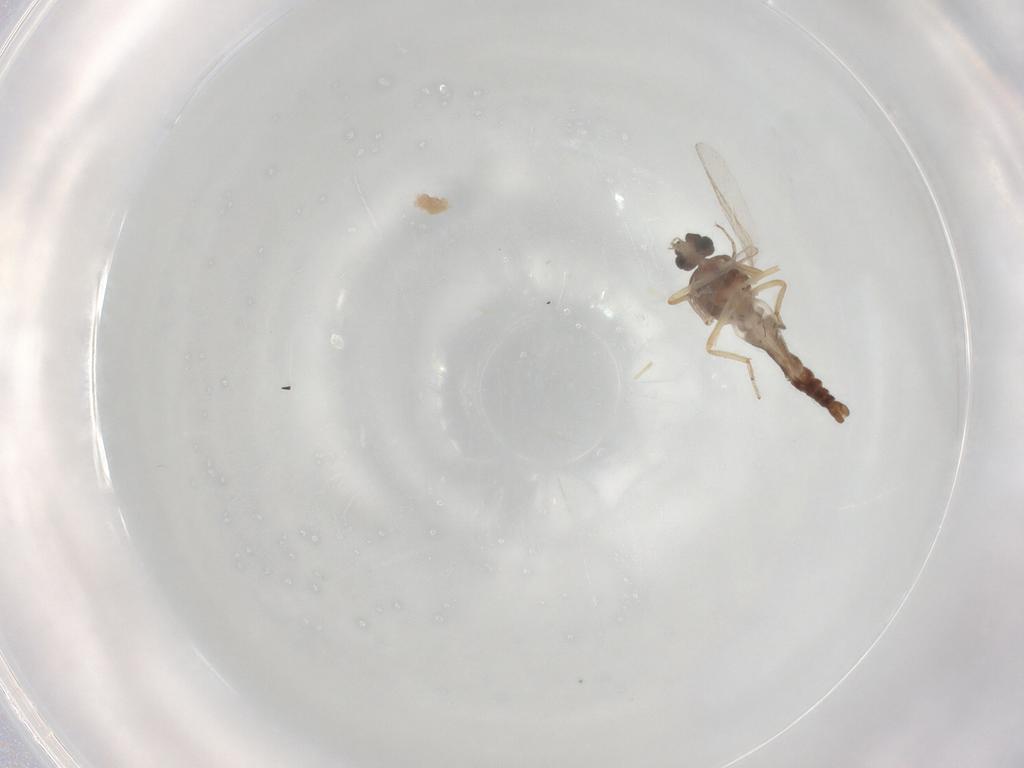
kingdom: Animalia
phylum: Arthropoda
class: Insecta
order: Diptera
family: Ceratopogonidae
